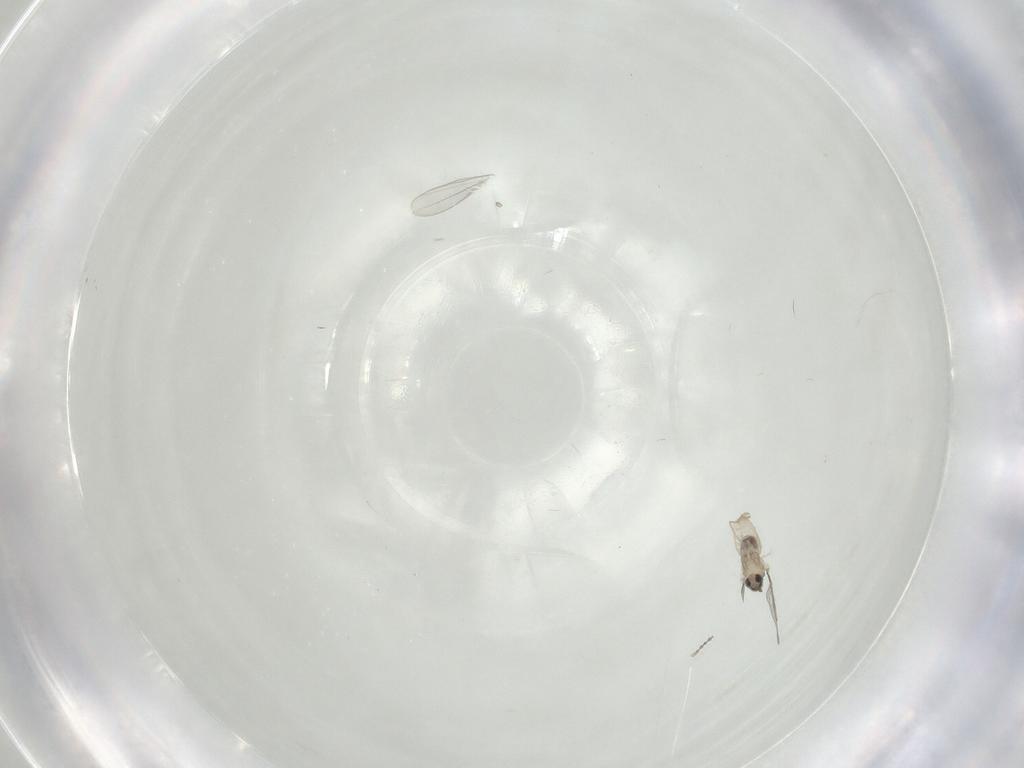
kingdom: Animalia
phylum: Arthropoda
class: Insecta
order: Diptera
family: Cecidomyiidae
